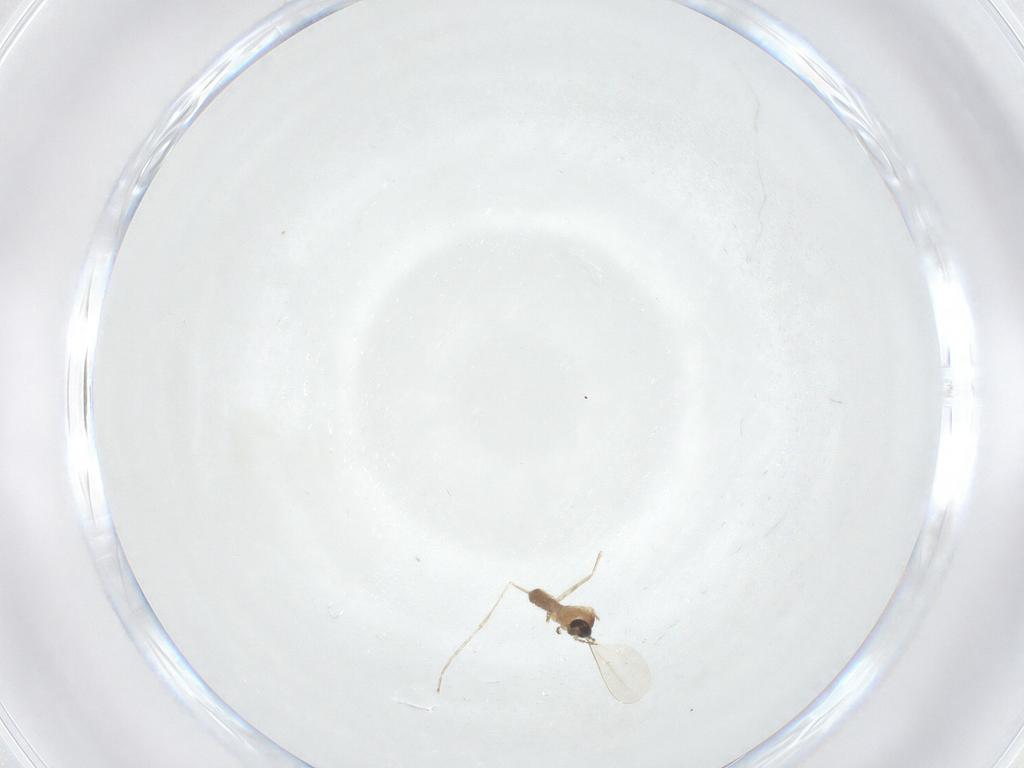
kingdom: Animalia
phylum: Arthropoda
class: Insecta
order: Diptera
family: Cecidomyiidae
